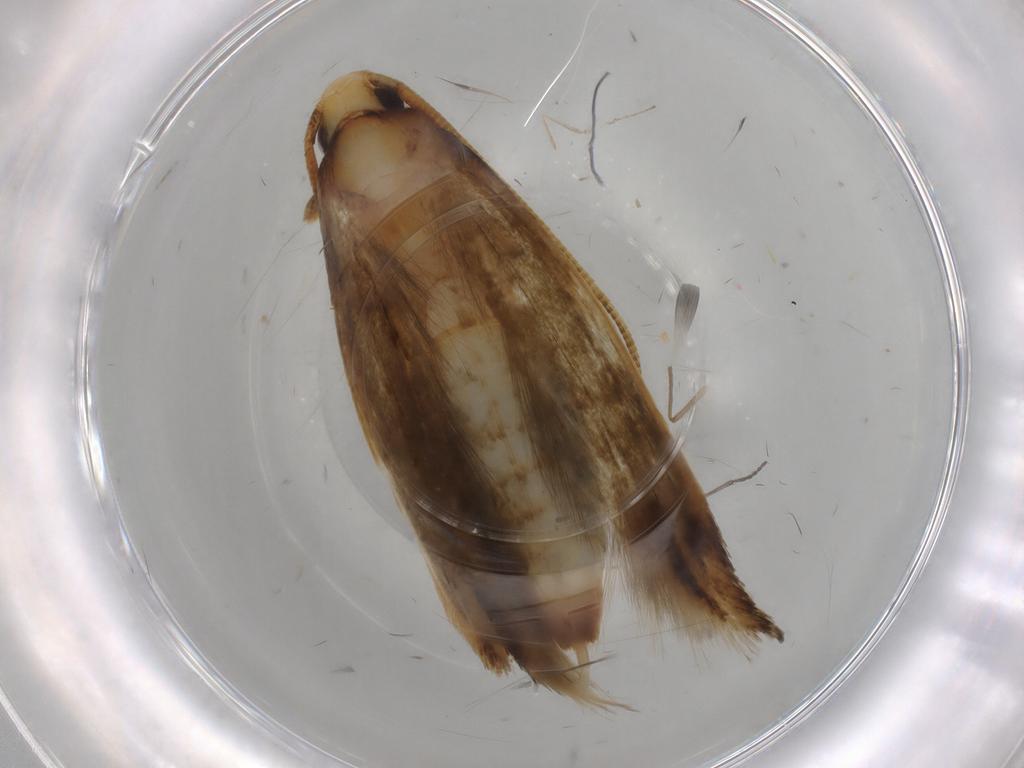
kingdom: Animalia
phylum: Arthropoda
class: Insecta
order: Lepidoptera
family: Tineidae
